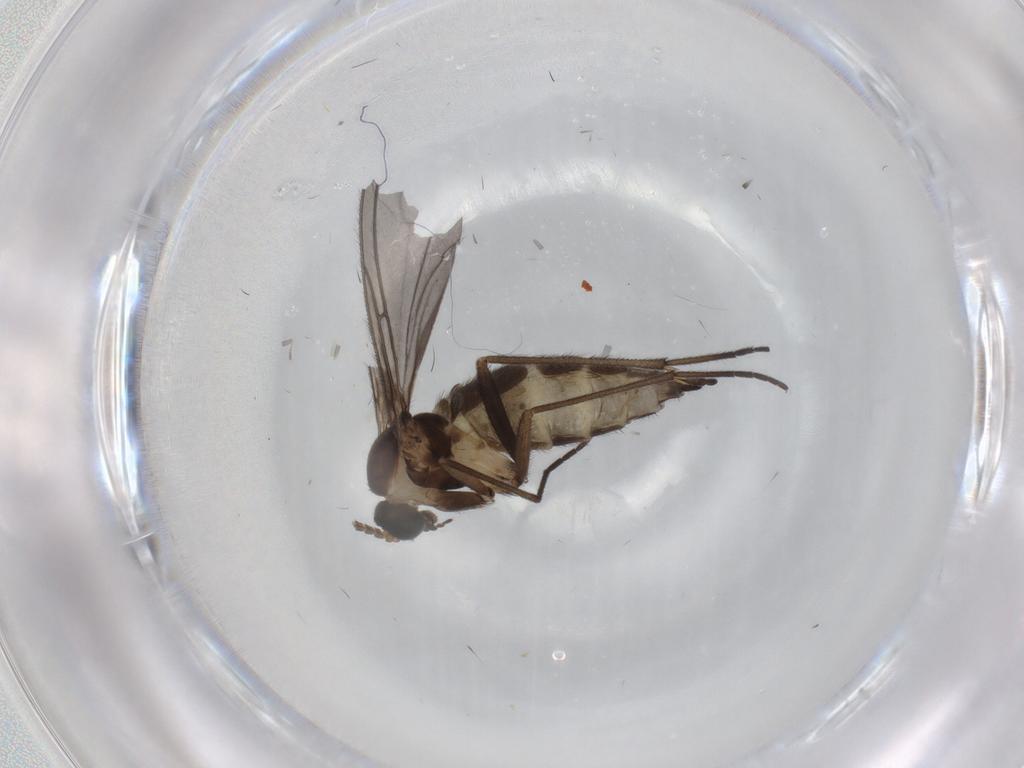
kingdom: Animalia
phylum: Arthropoda
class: Insecta
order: Diptera
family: Sciaridae
